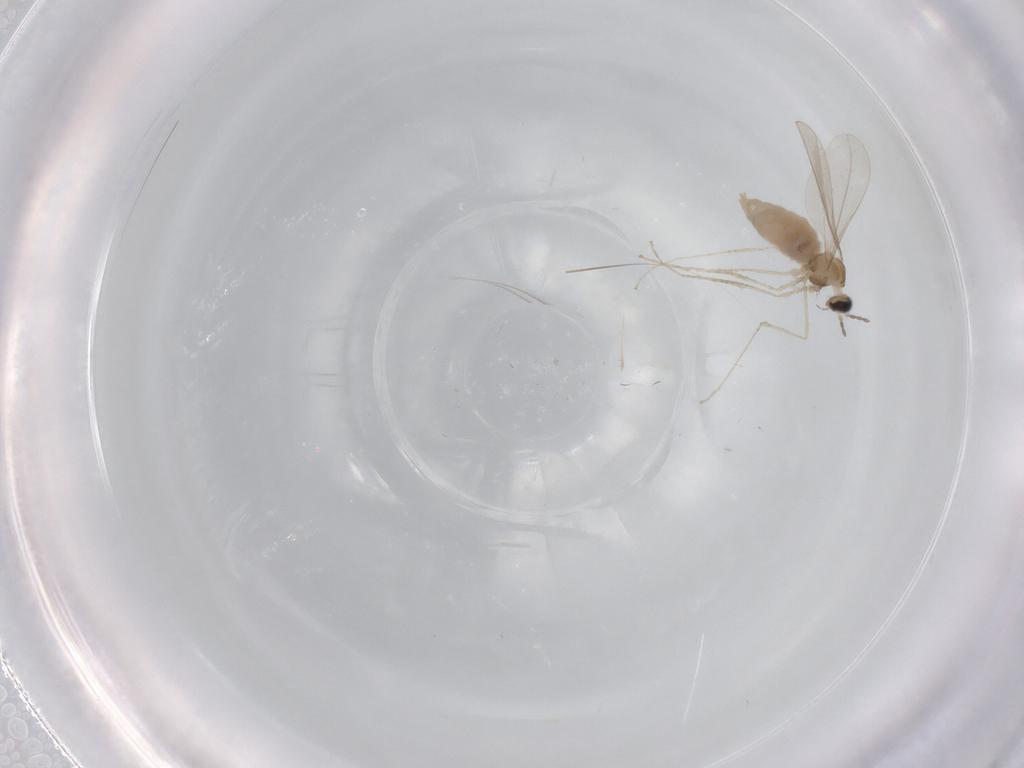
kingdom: Animalia
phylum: Arthropoda
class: Insecta
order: Diptera
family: Cecidomyiidae
